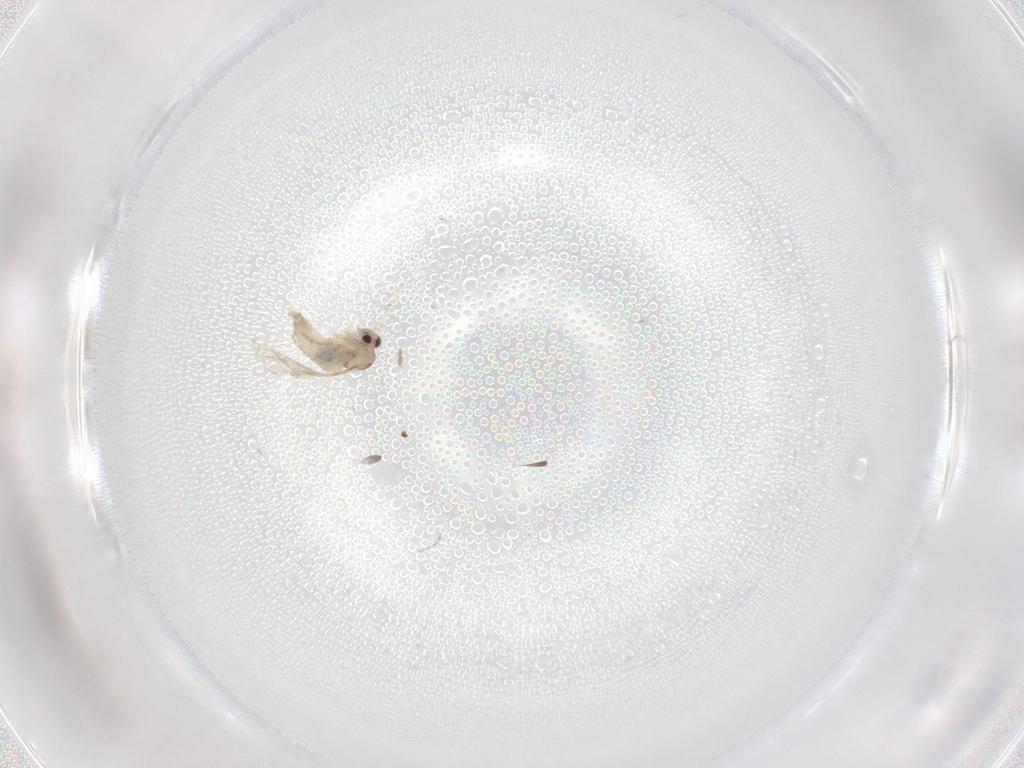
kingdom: Animalia
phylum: Arthropoda
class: Insecta
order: Diptera
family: Cecidomyiidae
